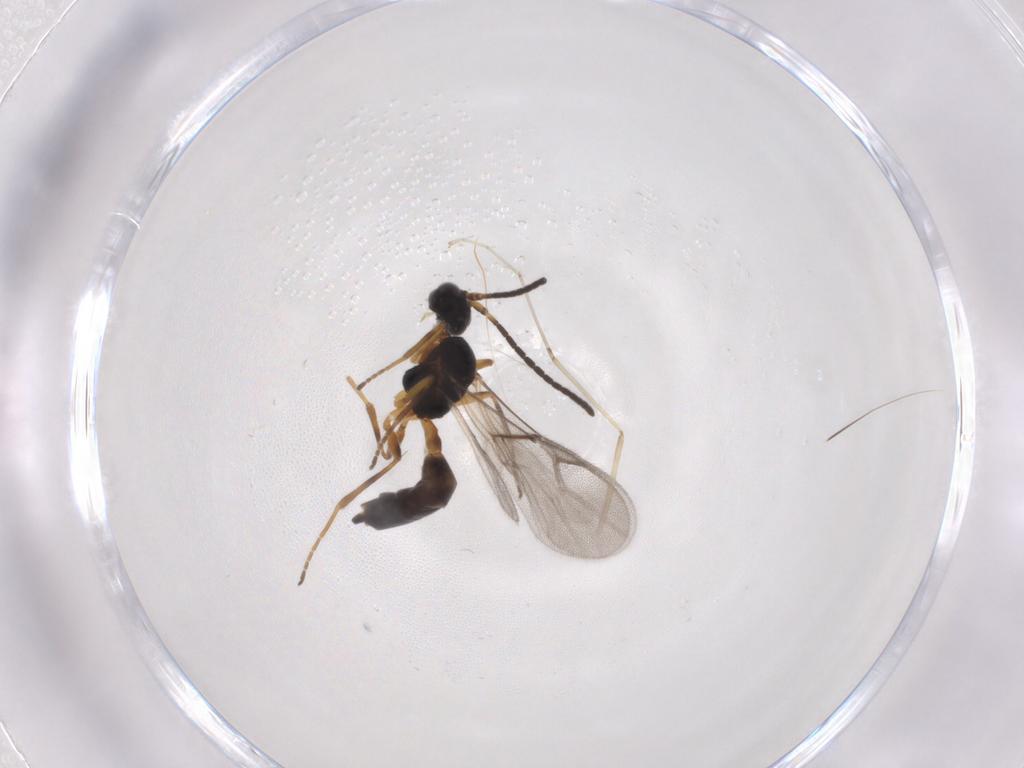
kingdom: Animalia
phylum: Arthropoda
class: Insecta
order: Hymenoptera
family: Braconidae
